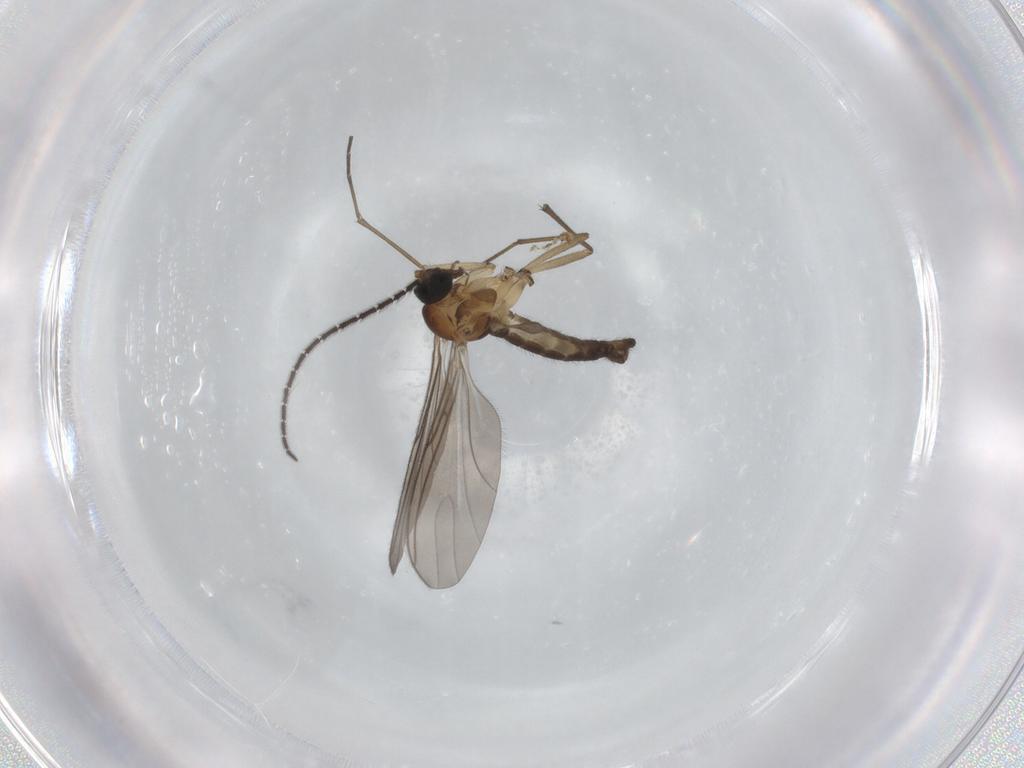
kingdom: Animalia
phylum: Arthropoda
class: Insecta
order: Diptera
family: Sciaridae
